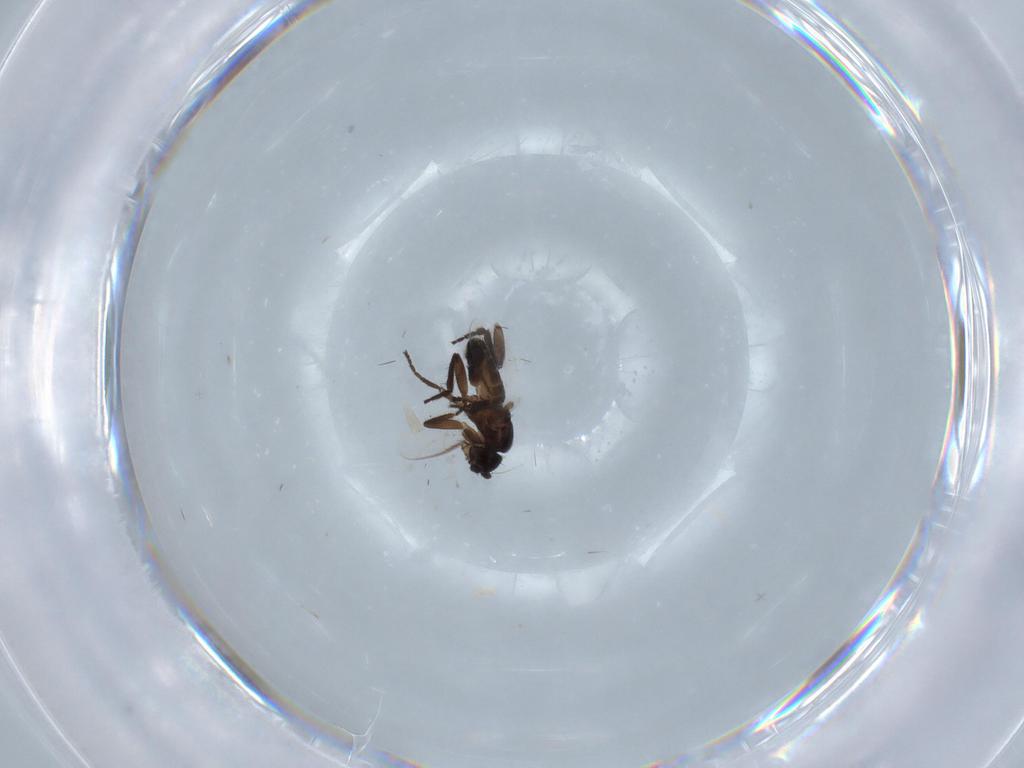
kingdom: Animalia
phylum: Arthropoda
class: Insecta
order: Diptera
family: Sphaeroceridae
